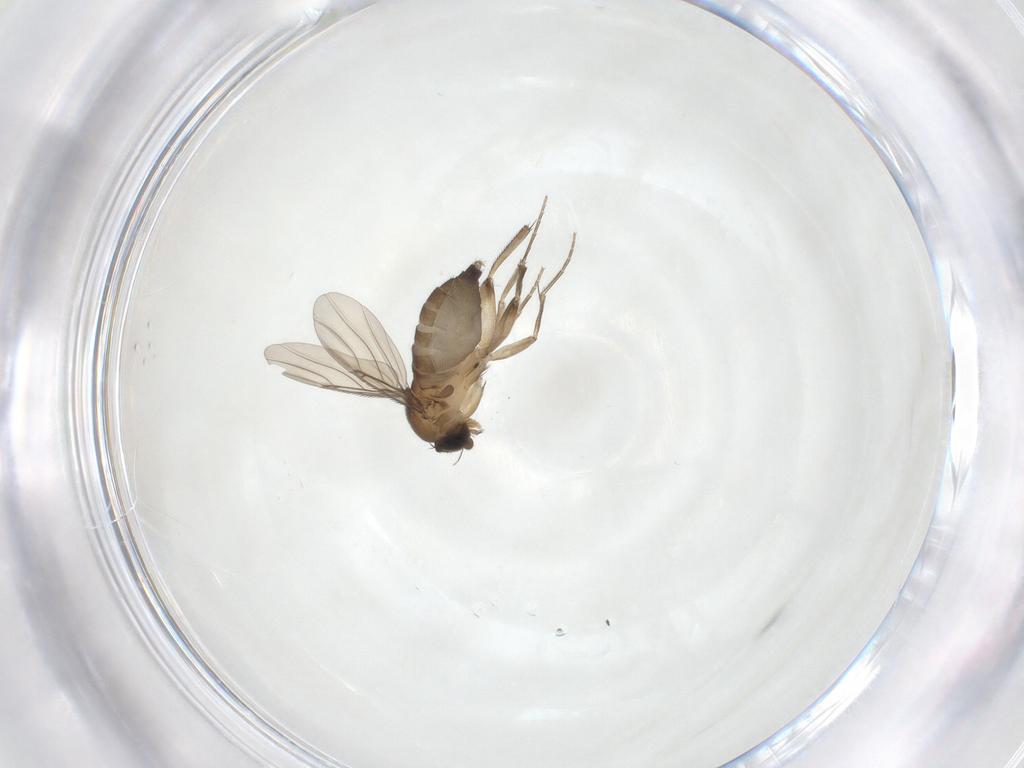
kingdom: Animalia
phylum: Arthropoda
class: Insecta
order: Diptera
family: Phoridae
